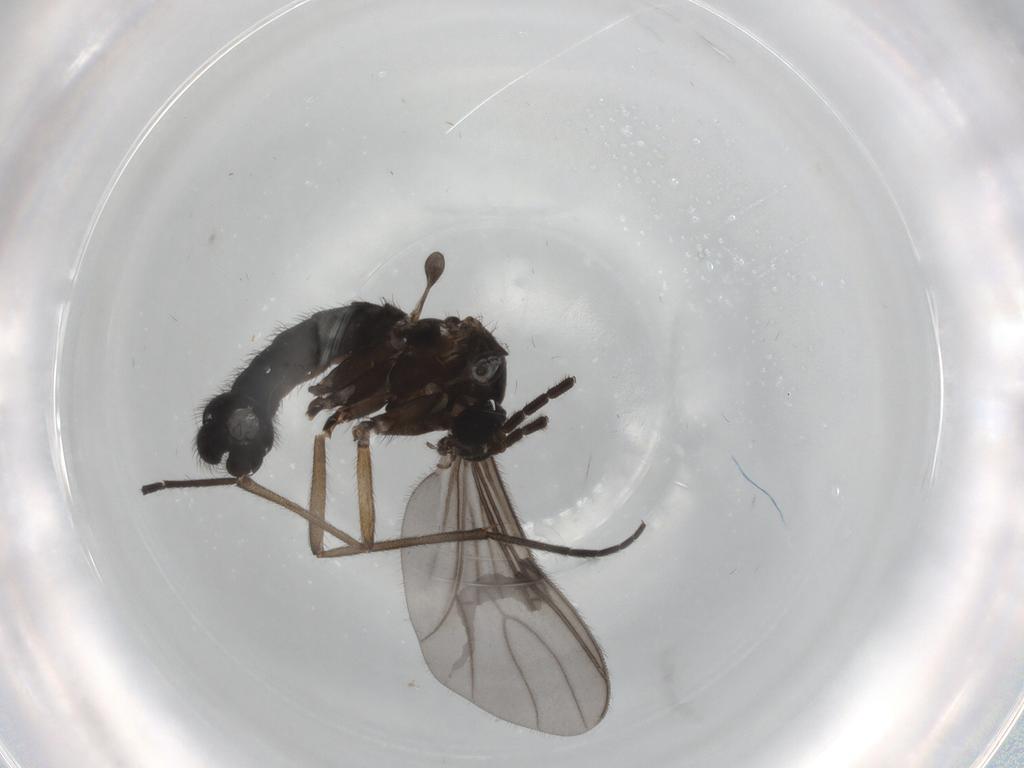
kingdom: Animalia
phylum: Arthropoda
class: Insecta
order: Diptera
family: Sciaridae
